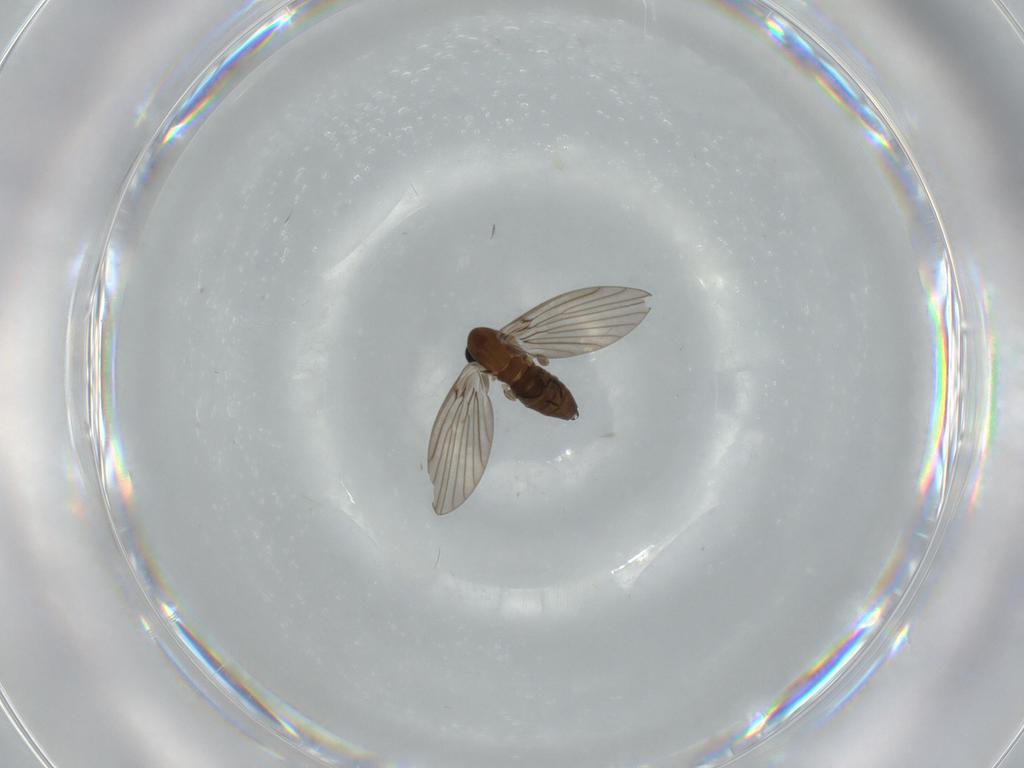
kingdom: Animalia
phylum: Arthropoda
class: Insecta
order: Diptera
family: Psychodidae
